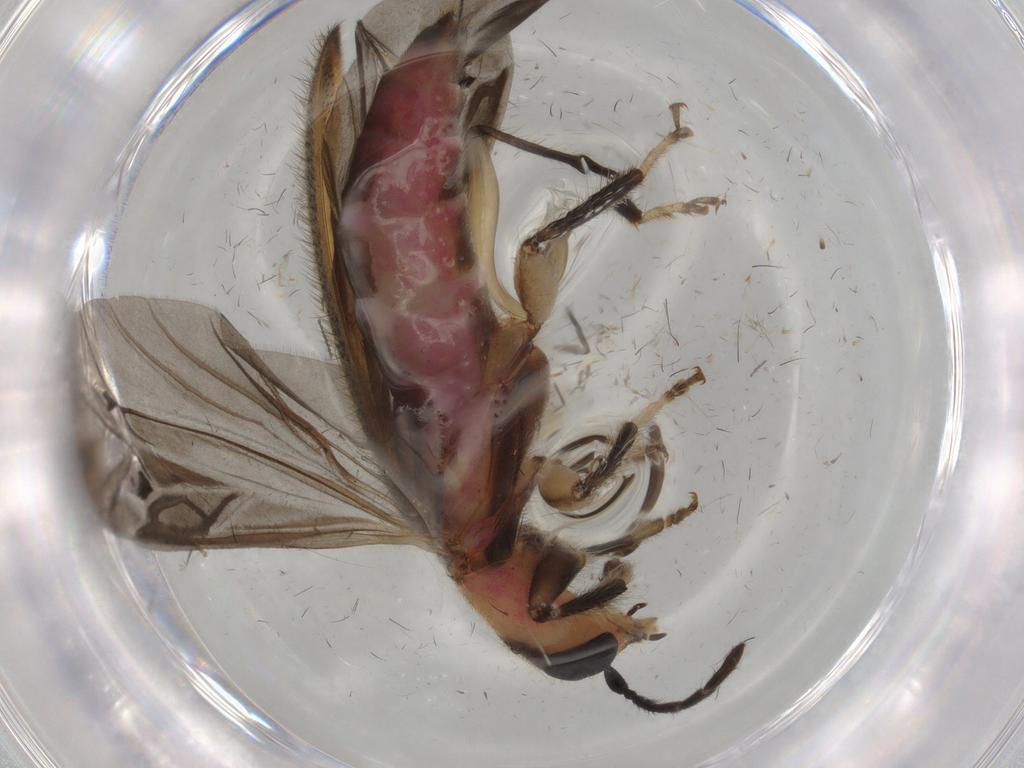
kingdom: Animalia
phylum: Arthropoda
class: Insecta
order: Coleoptera
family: Cleridae
